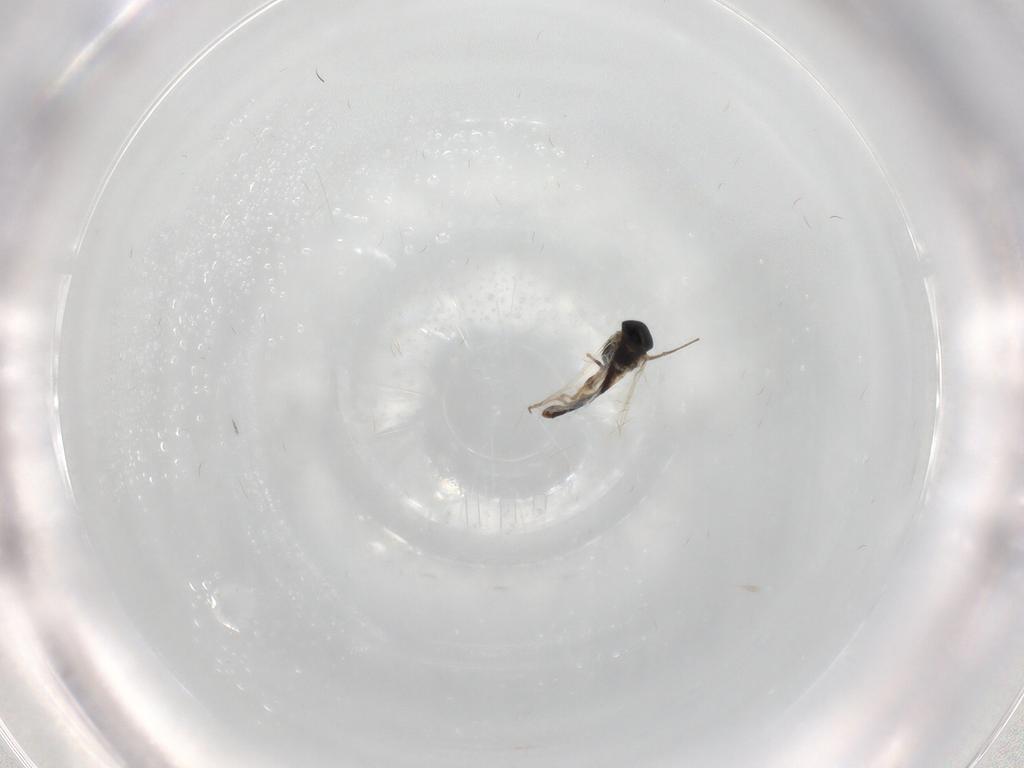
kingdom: Animalia
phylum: Arthropoda
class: Insecta
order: Diptera
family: Chironomidae
